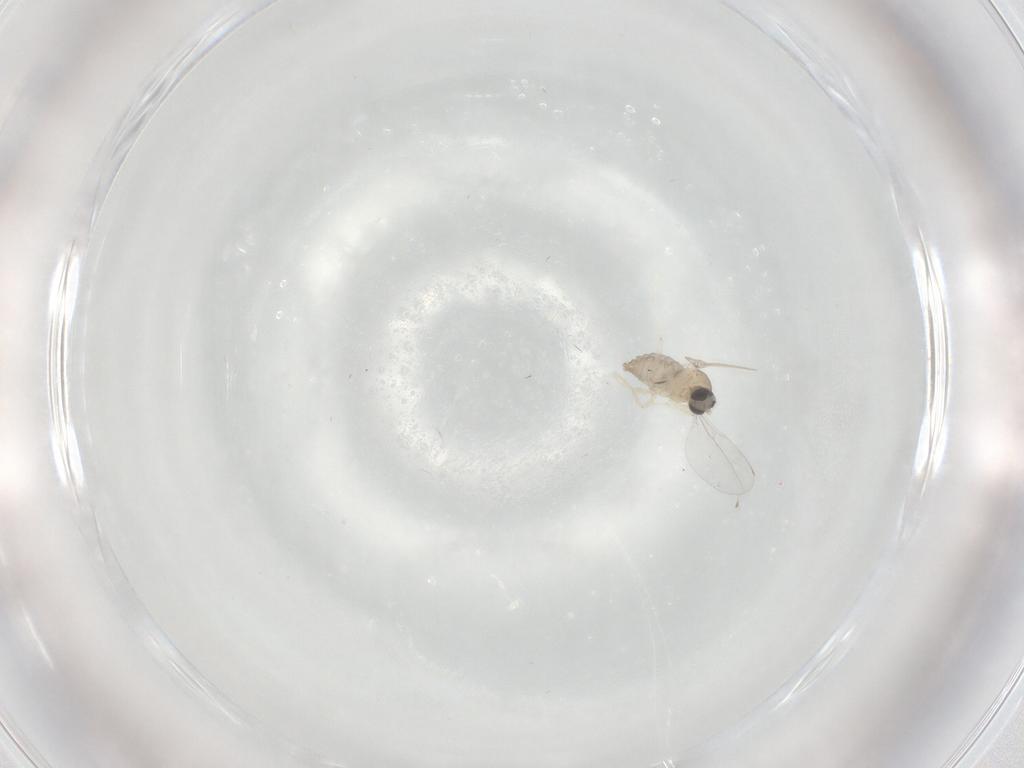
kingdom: Animalia
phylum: Arthropoda
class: Insecta
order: Diptera
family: Cecidomyiidae
